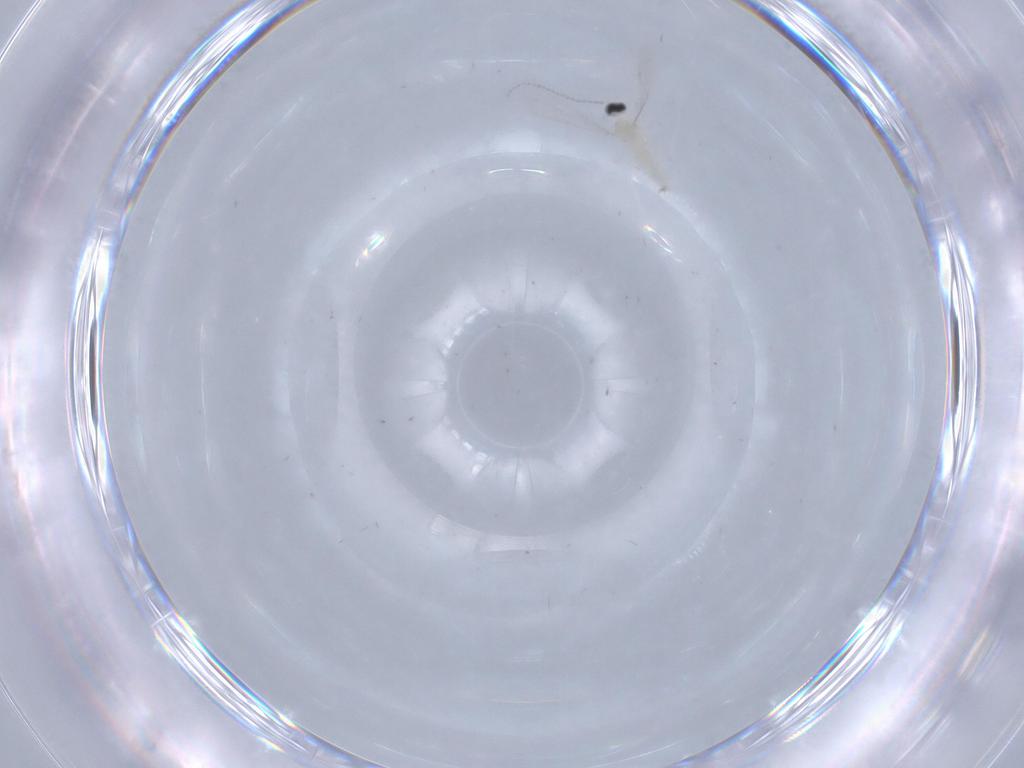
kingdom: Animalia
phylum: Arthropoda
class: Insecta
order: Diptera
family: Cecidomyiidae
